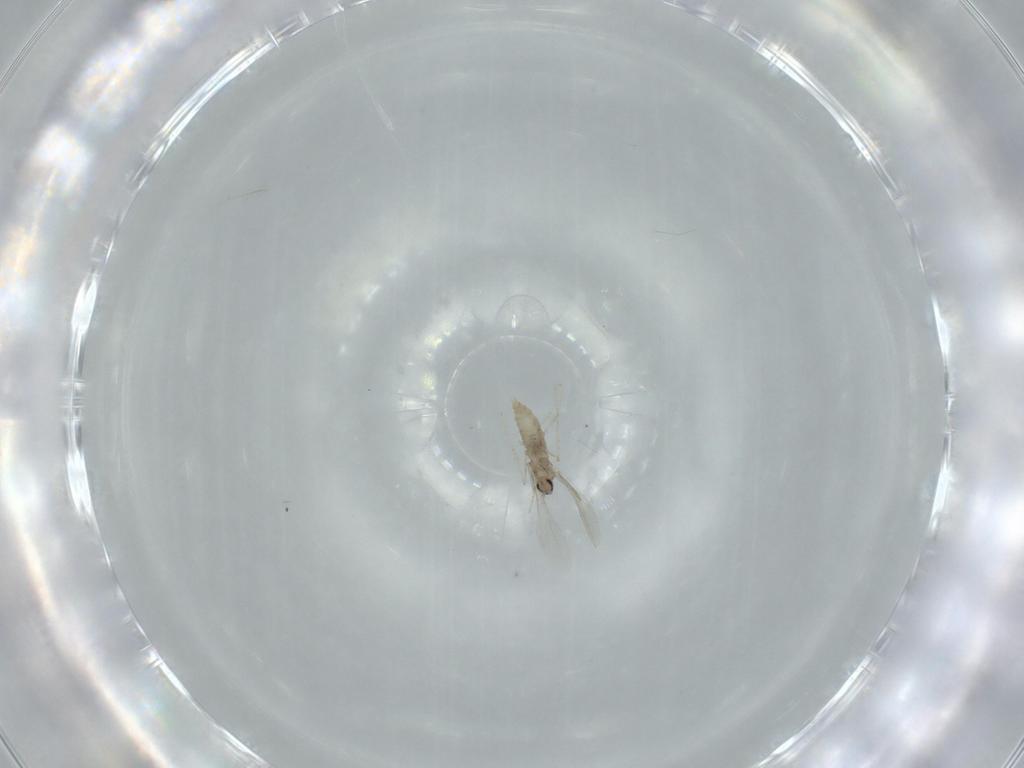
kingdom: Animalia
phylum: Arthropoda
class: Insecta
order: Diptera
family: Cecidomyiidae
